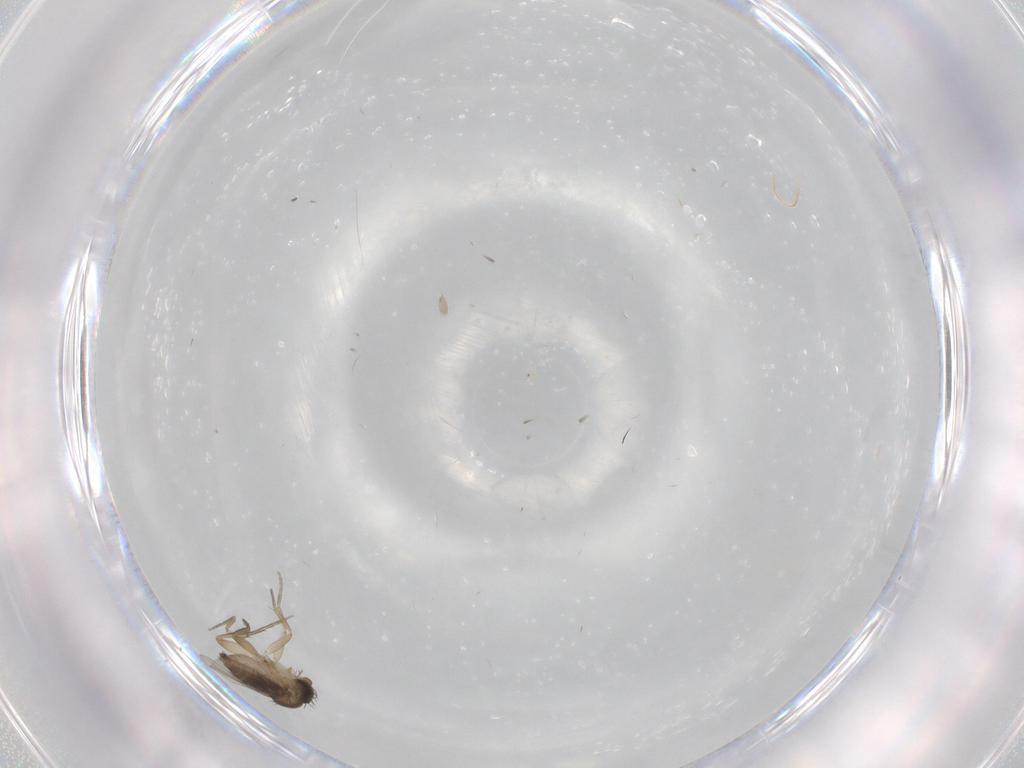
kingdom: Animalia
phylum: Arthropoda
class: Insecta
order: Diptera
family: Phoridae
